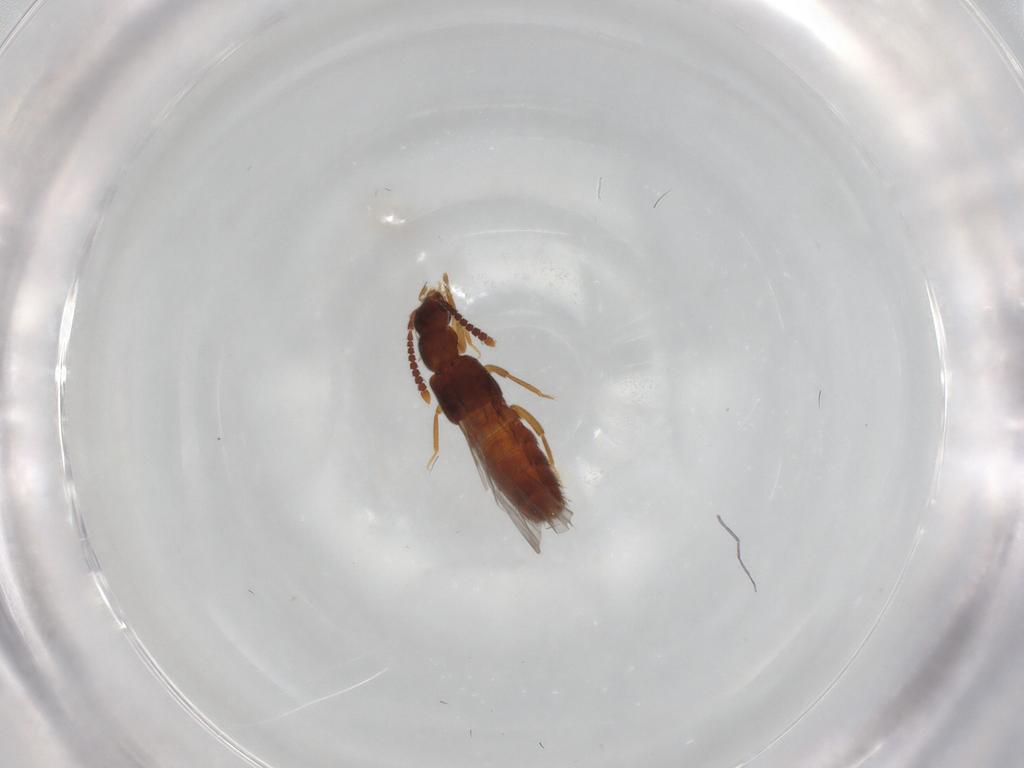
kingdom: Animalia
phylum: Arthropoda
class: Insecta
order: Coleoptera
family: Staphylinidae
